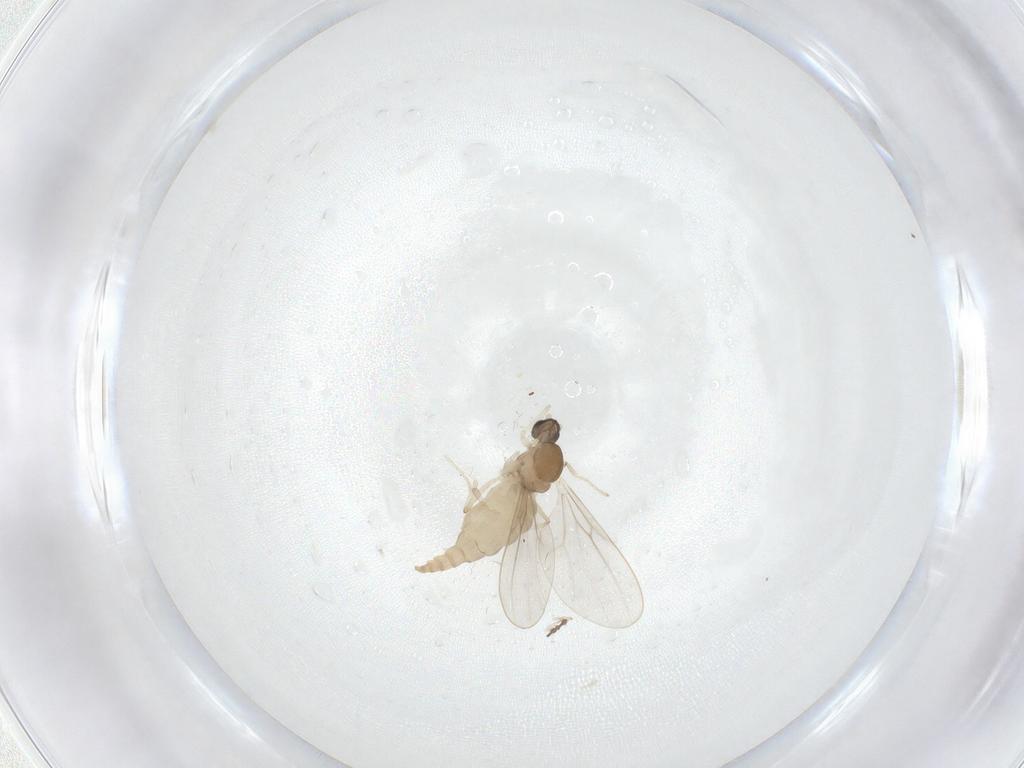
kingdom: Animalia
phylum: Arthropoda
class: Insecta
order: Diptera
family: Cecidomyiidae
